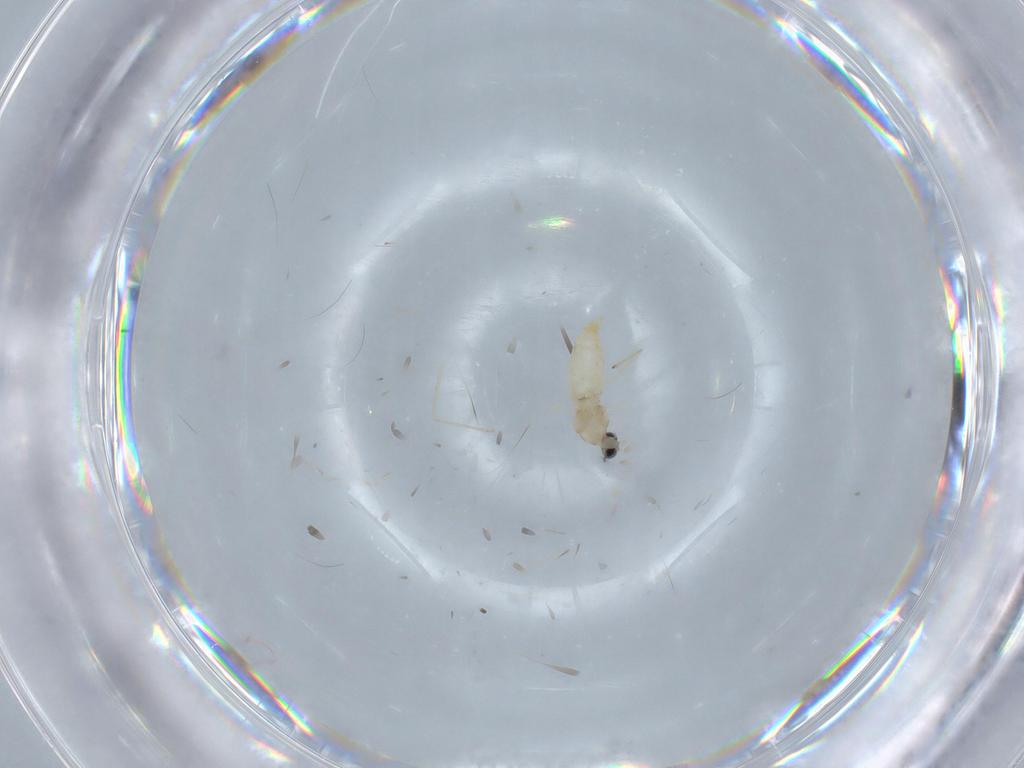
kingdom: Animalia
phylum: Arthropoda
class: Insecta
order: Diptera
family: Cecidomyiidae
